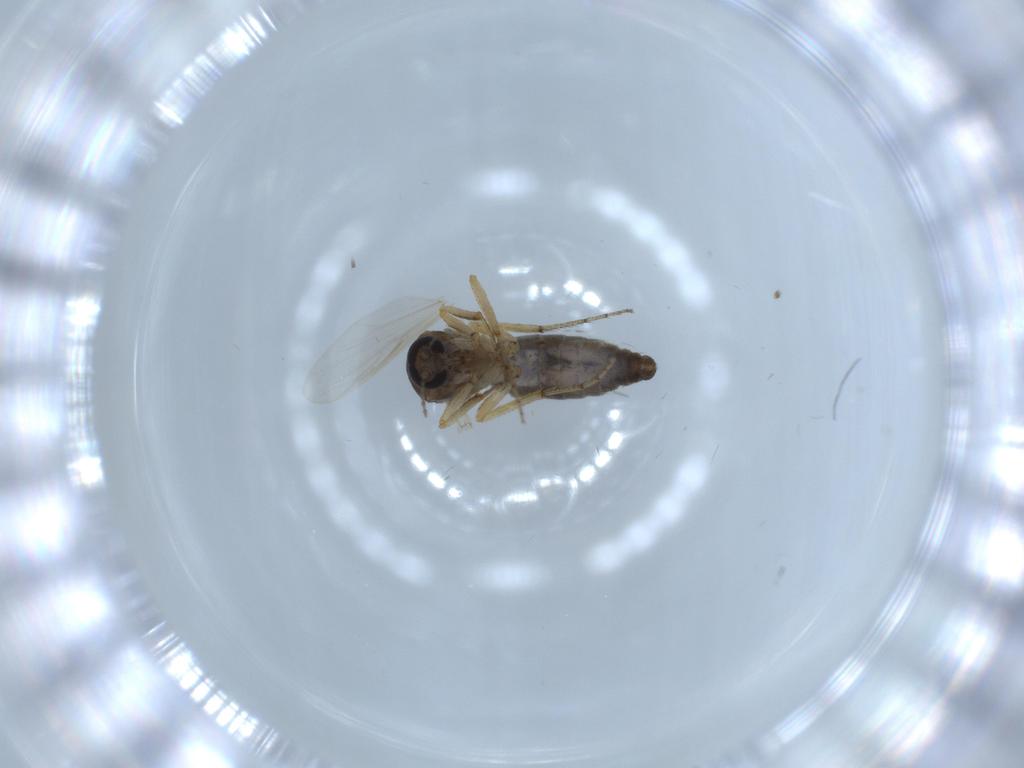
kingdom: Animalia
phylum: Arthropoda
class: Insecta
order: Diptera
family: Drosophilidae
